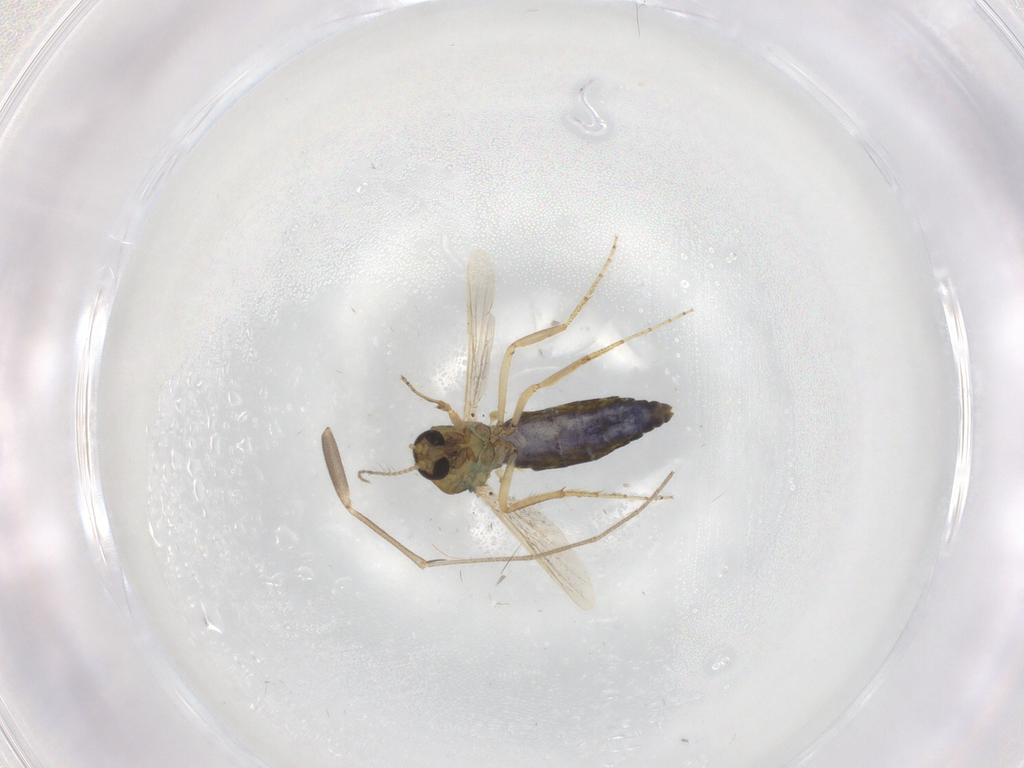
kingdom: Animalia
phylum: Arthropoda
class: Insecta
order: Diptera
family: Ceratopogonidae
